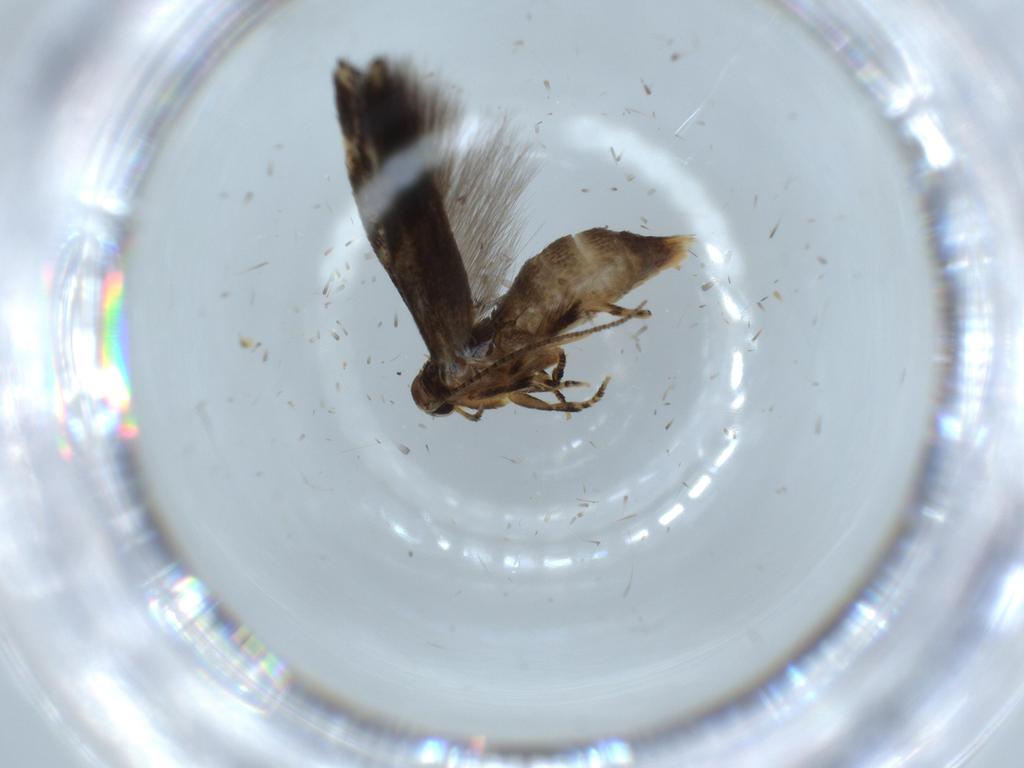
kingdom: Animalia
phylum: Arthropoda
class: Insecta
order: Lepidoptera
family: Elachistidae
